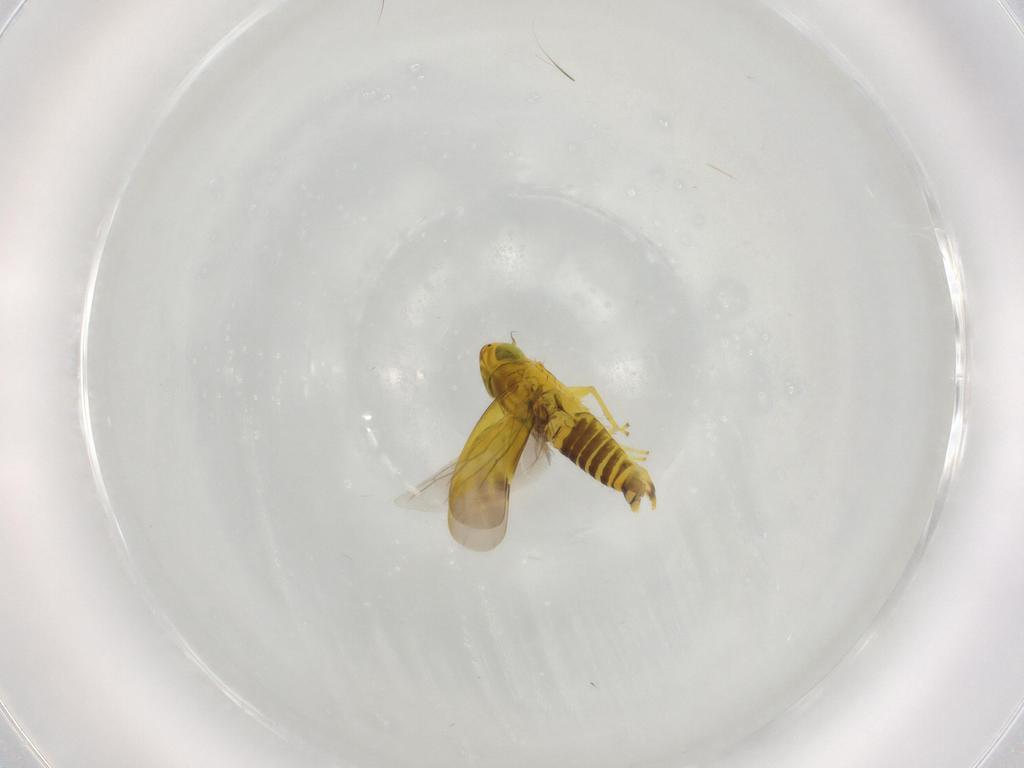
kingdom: Animalia
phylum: Arthropoda
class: Insecta
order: Hemiptera
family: Cicadellidae
